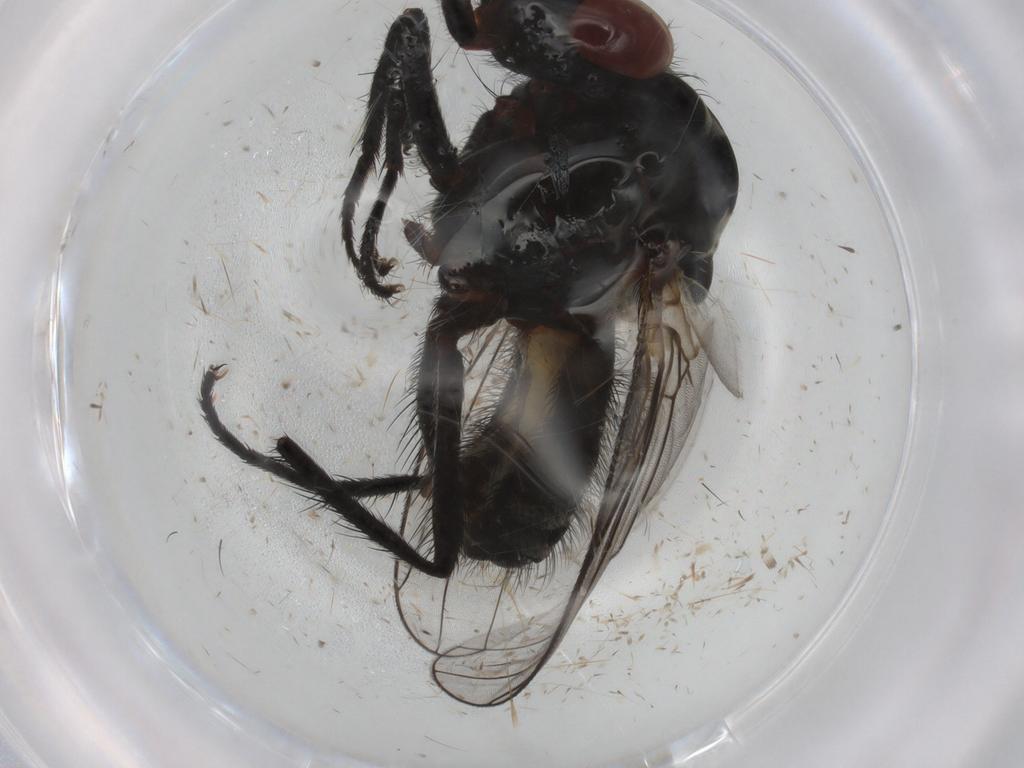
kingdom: Animalia
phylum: Arthropoda
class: Insecta
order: Diptera
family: Anthomyiidae
